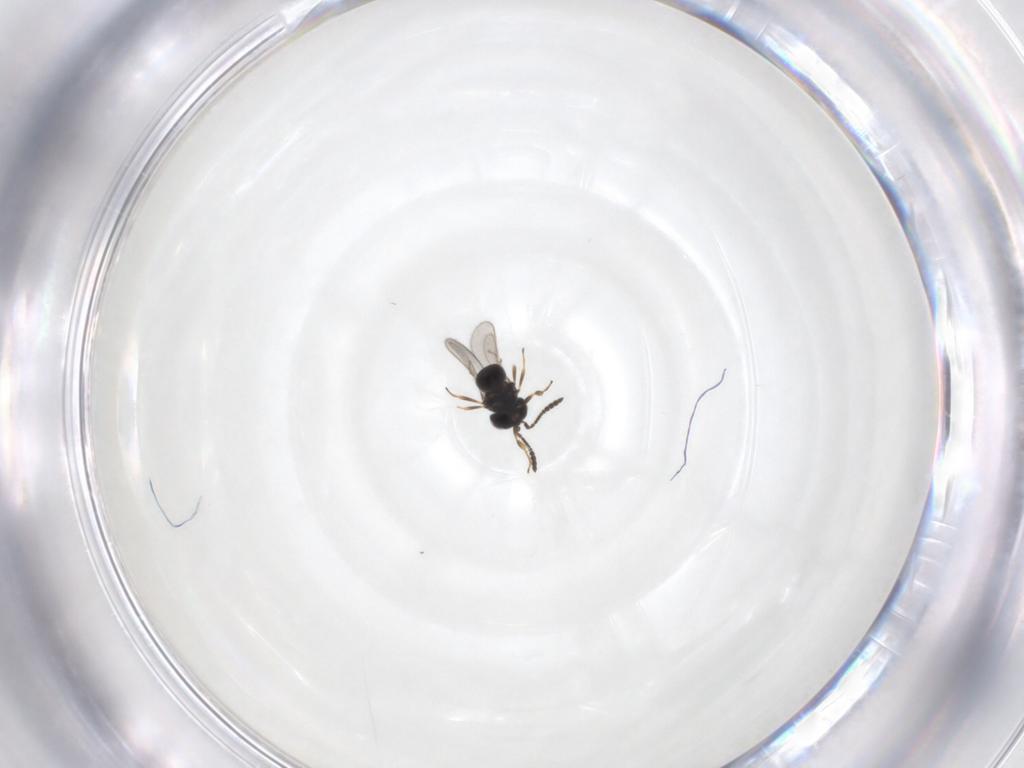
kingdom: Animalia
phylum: Arthropoda
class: Insecta
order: Hymenoptera
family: Scelionidae
